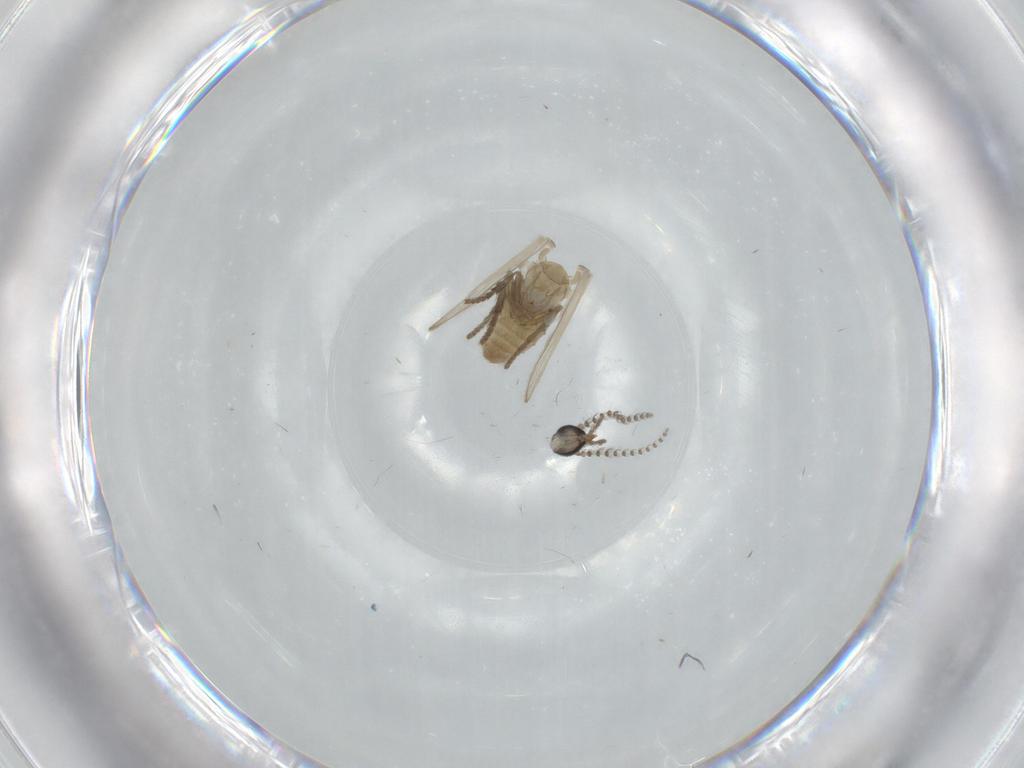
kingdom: Animalia
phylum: Arthropoda
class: Insecta
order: Diptera
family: Psychodidae
